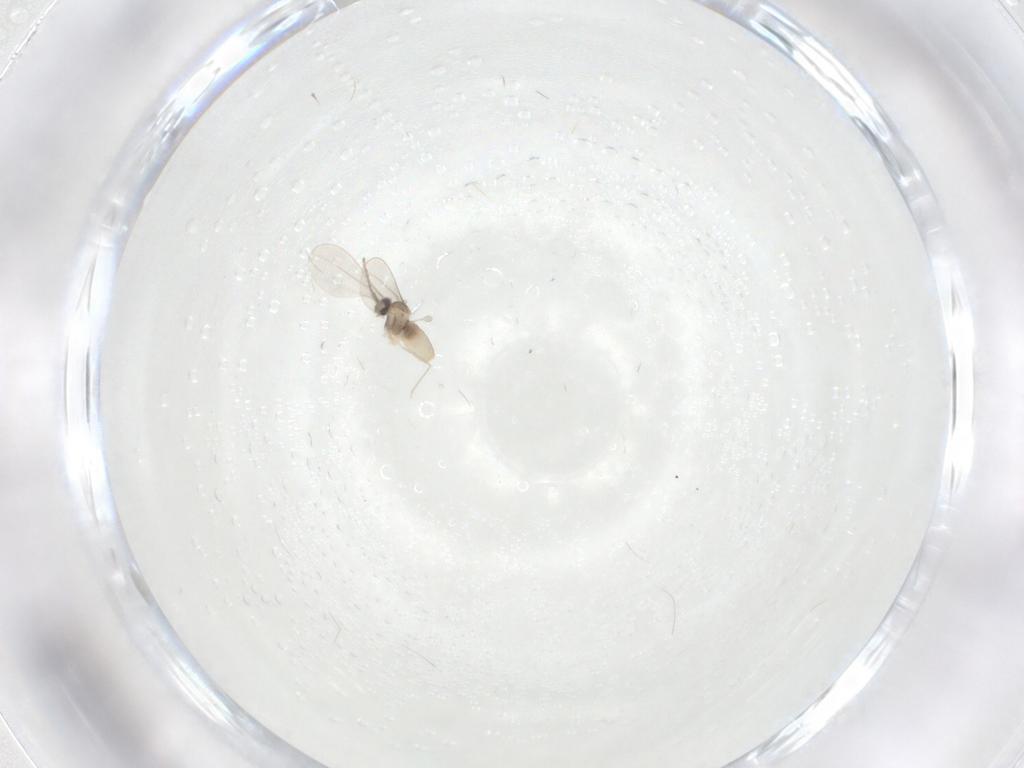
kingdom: Animalia
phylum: Arthropoda
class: Insecta
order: Diptera
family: Cecidomyiidae
